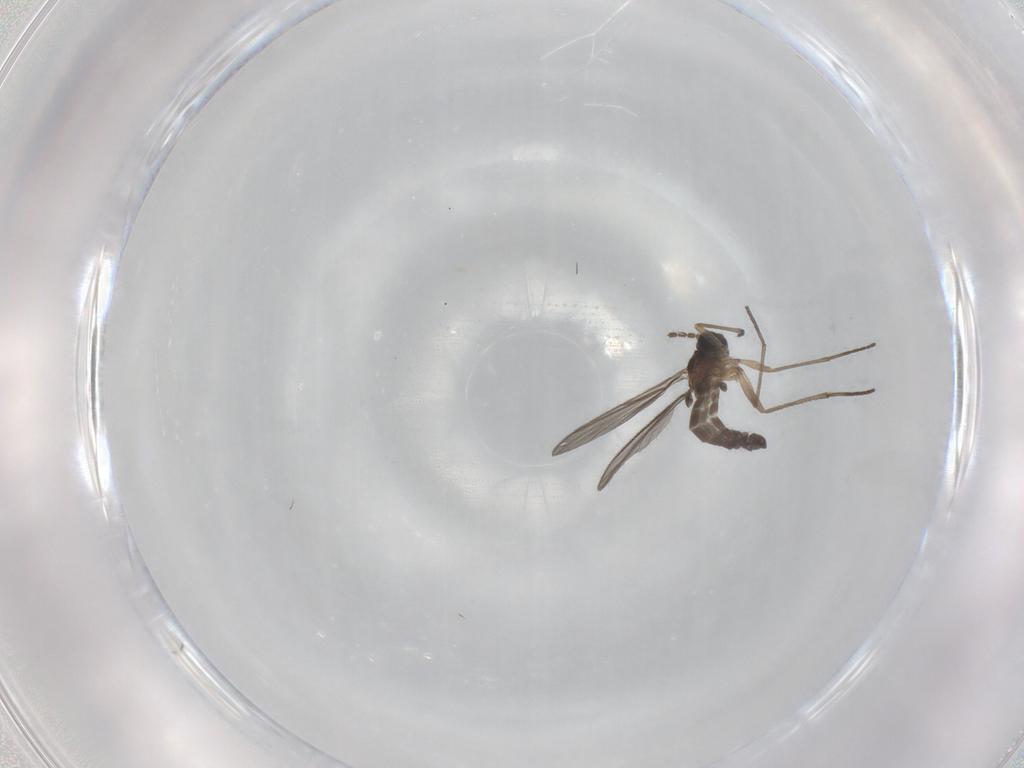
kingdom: Animalia
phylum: Arthropoda
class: Insecta
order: Diptera
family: Sciaridae
